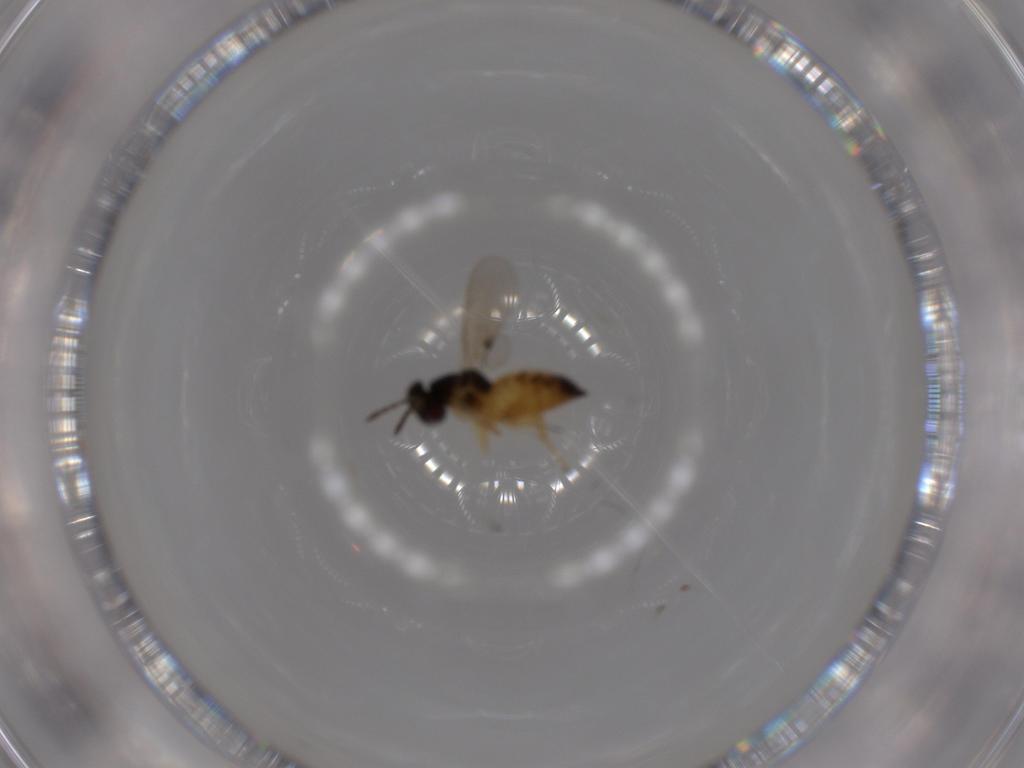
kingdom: Animalia
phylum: Arthropoda
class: Insecta
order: Hymenoptera
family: Eulophidae
